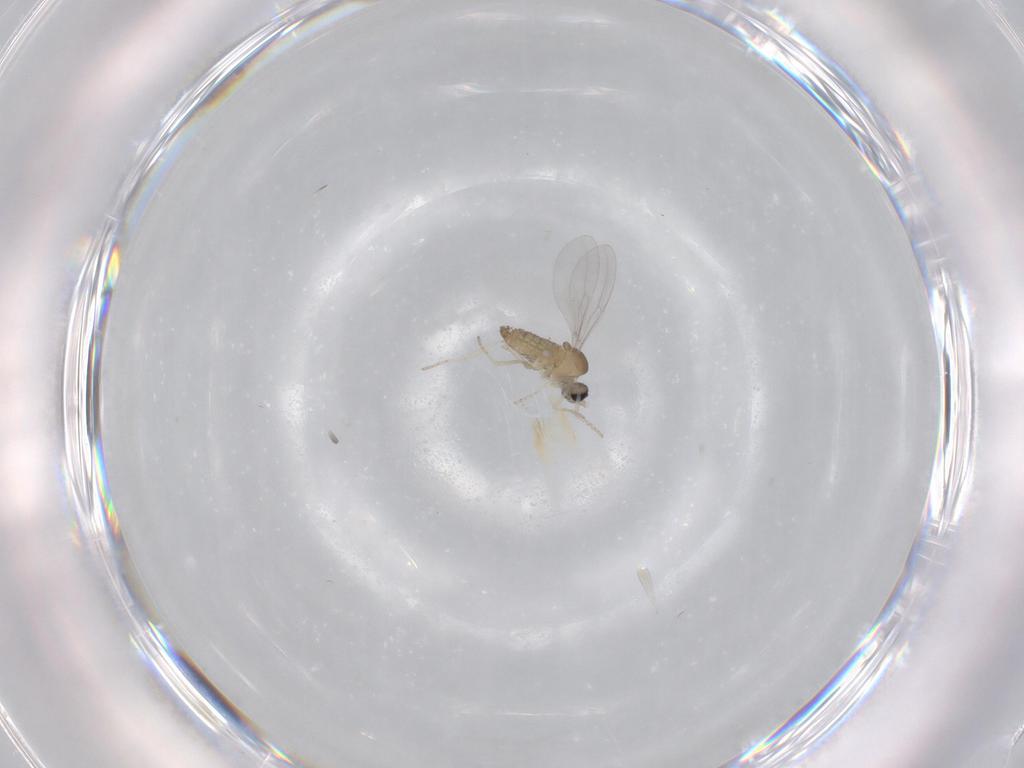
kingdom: Animalia
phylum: Arthropoda
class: Insecta
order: Diptera
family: Cecidomyiidae
